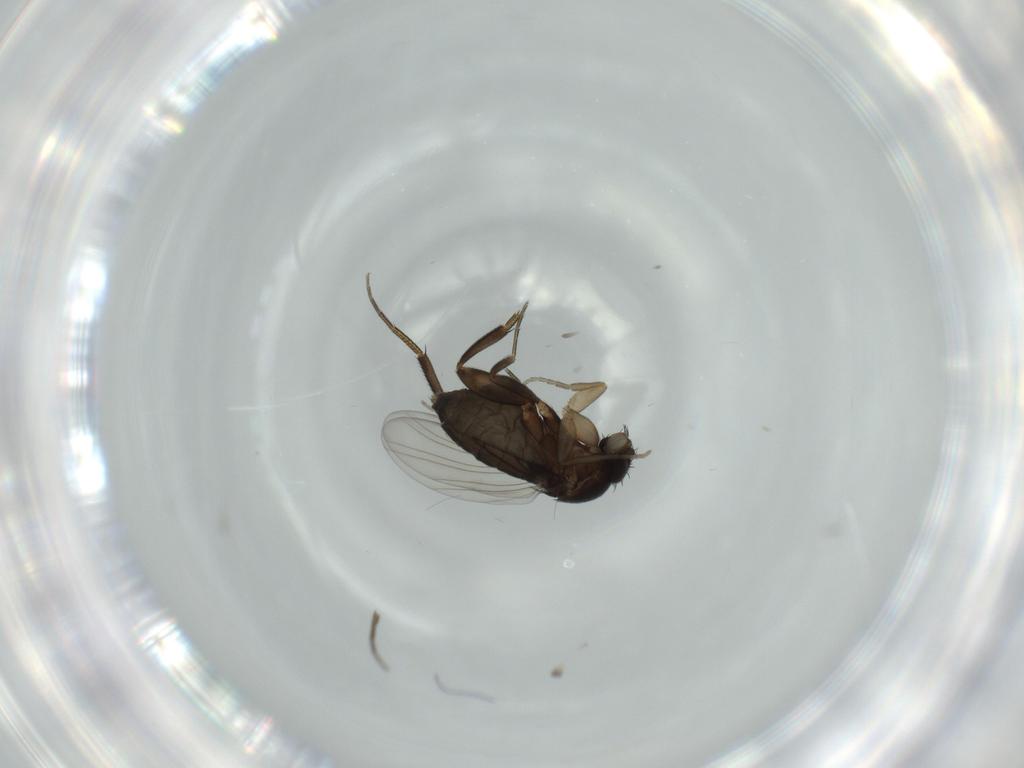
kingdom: Animalia
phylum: Arthropoda
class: Insecta
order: Diptera
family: Phoridae
